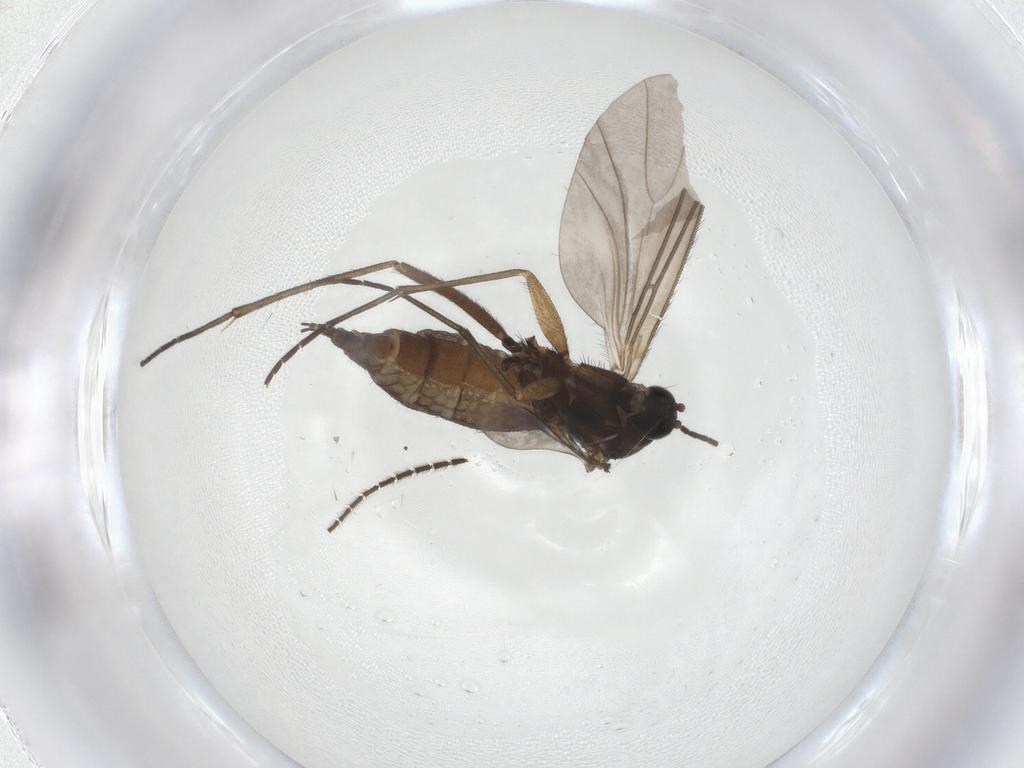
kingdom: Animalia
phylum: Arthropoda
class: Insecta
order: Diptera
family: Sciaridae
